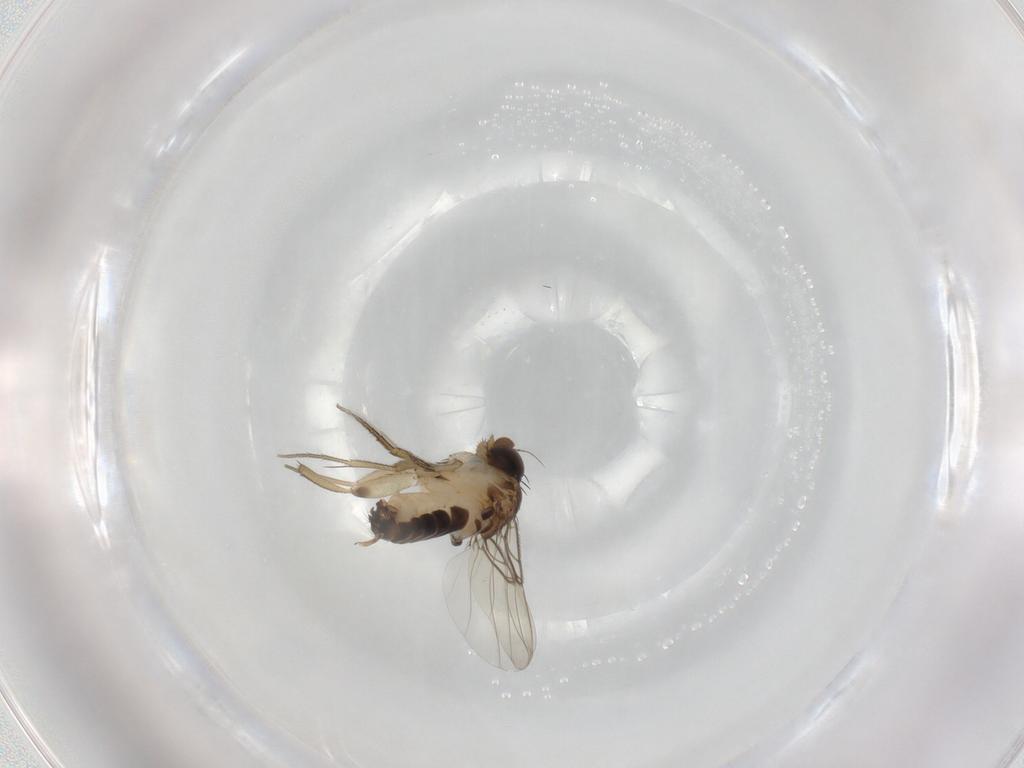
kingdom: Animalia
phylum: Arthropoda
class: Insecta
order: Diptera
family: Phoridae
